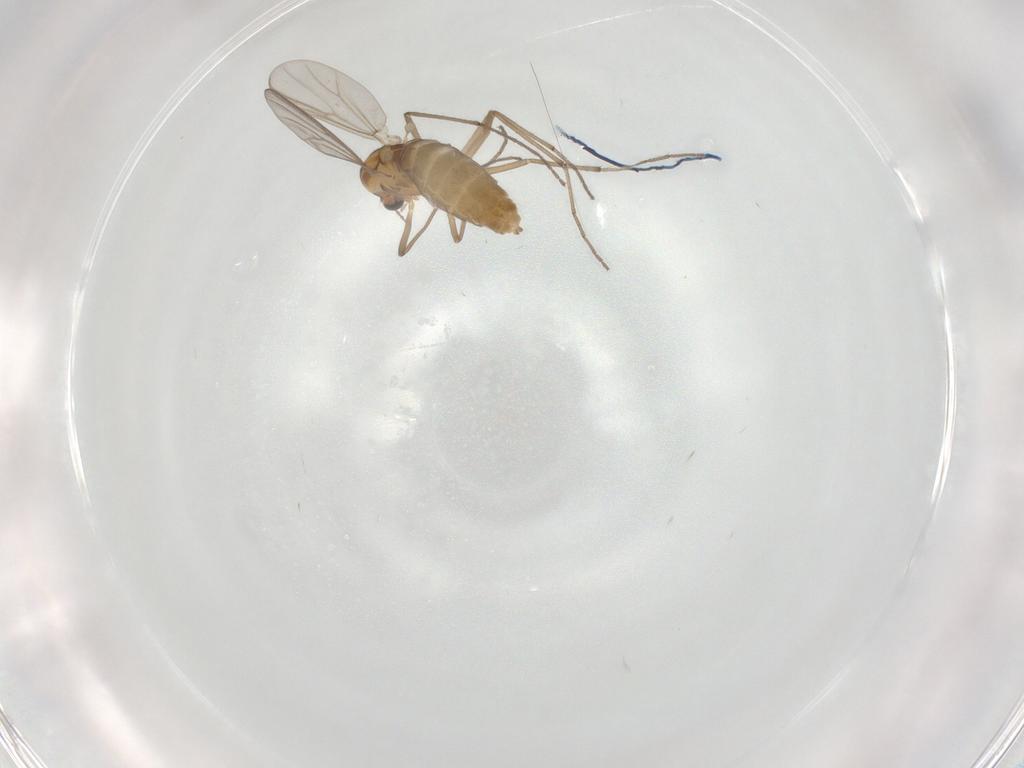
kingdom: Animalia
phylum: Arthropoda
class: Insecta
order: Diptera
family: Chironomidae
